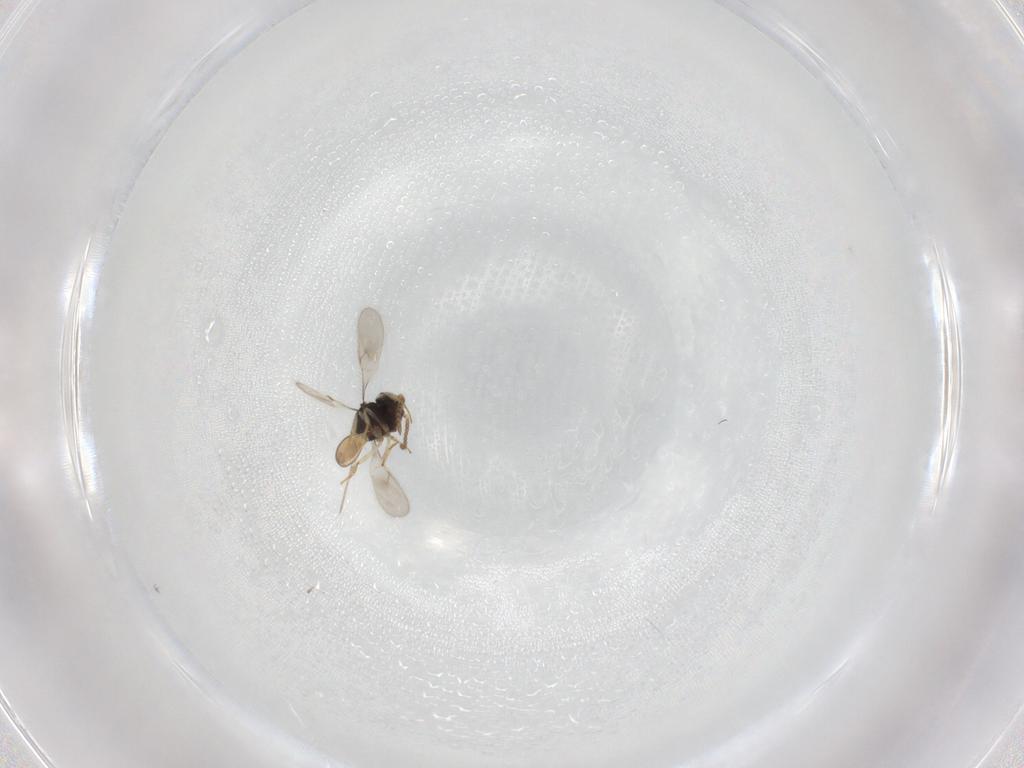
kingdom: Animalia
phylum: Arthropoda
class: Insecta
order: Hymenoptera
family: Scelionidae
